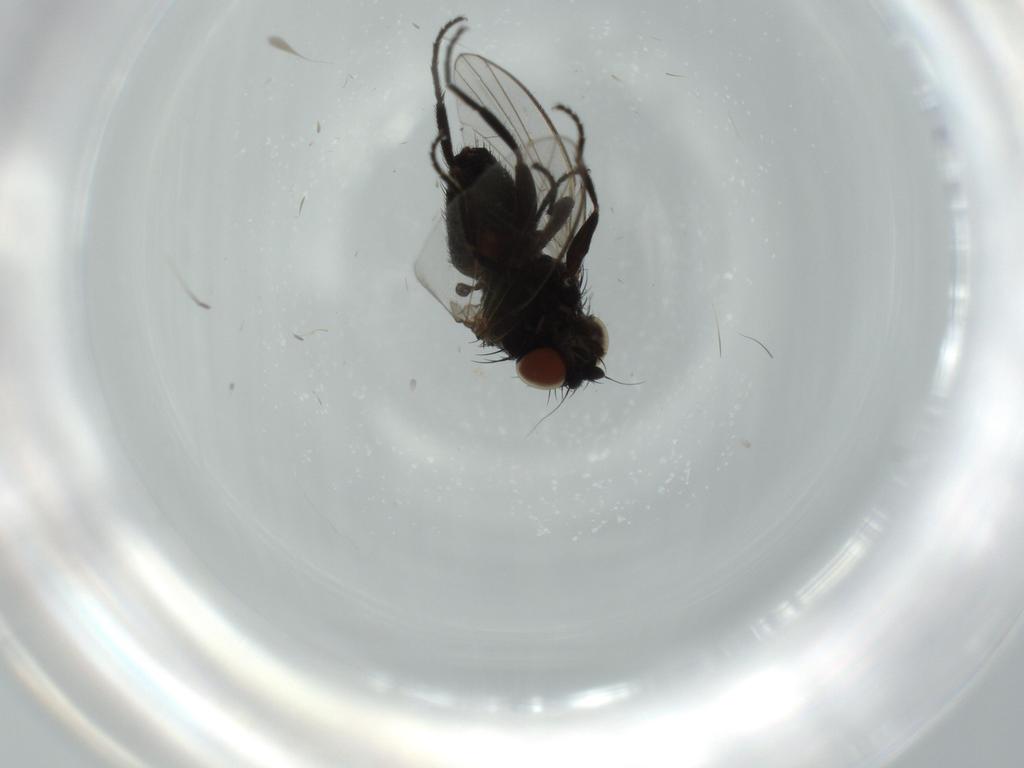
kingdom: Animalia
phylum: Arthropoda
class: Insecta
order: Diptera
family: Milichiidae
